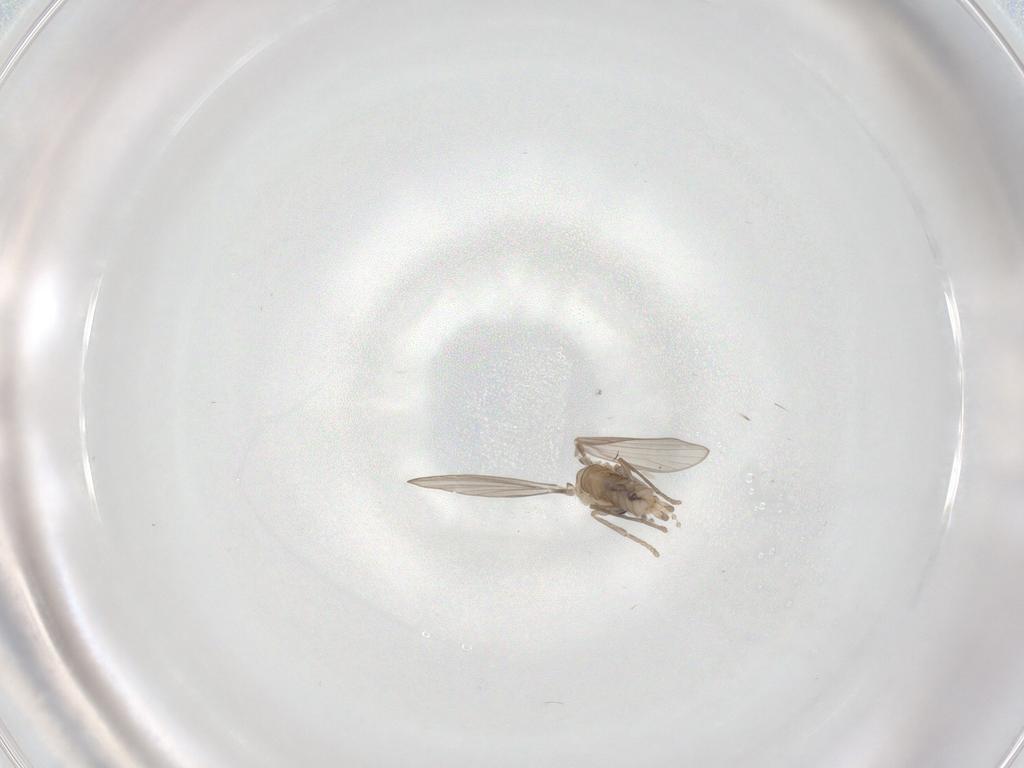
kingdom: Animalia
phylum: Arthropoda
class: Insecta
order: Diptera
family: Psychodidae
